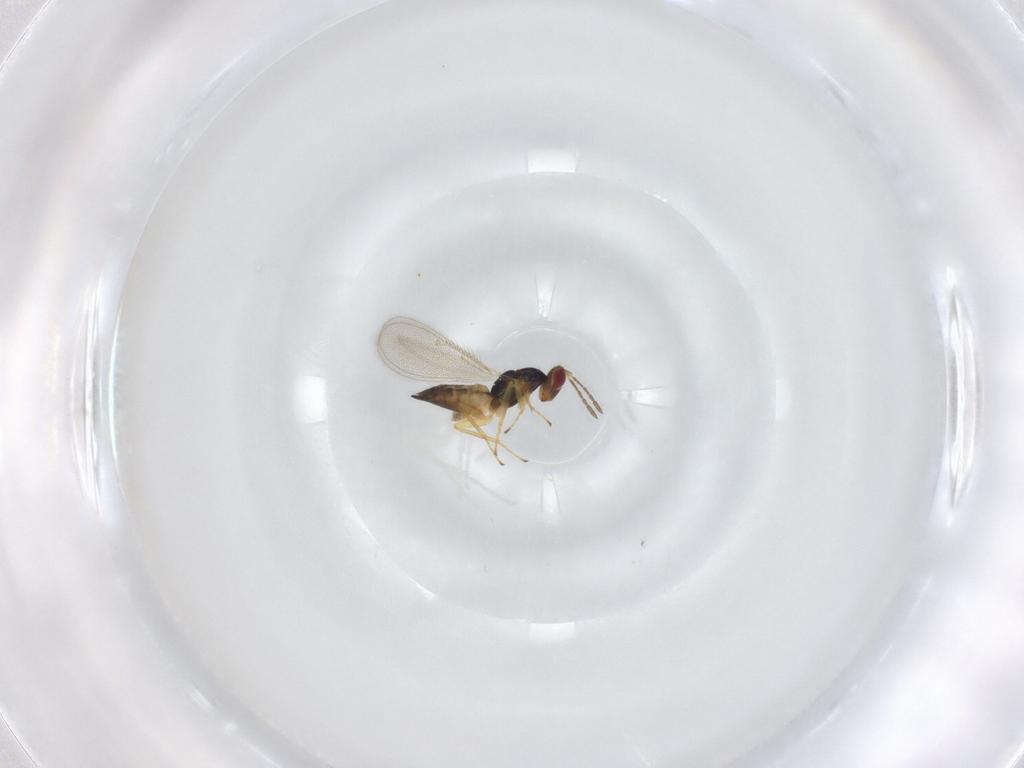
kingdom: Animalia
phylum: Arthropoda
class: Insecta
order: Hymenoptera
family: Eulophidae
